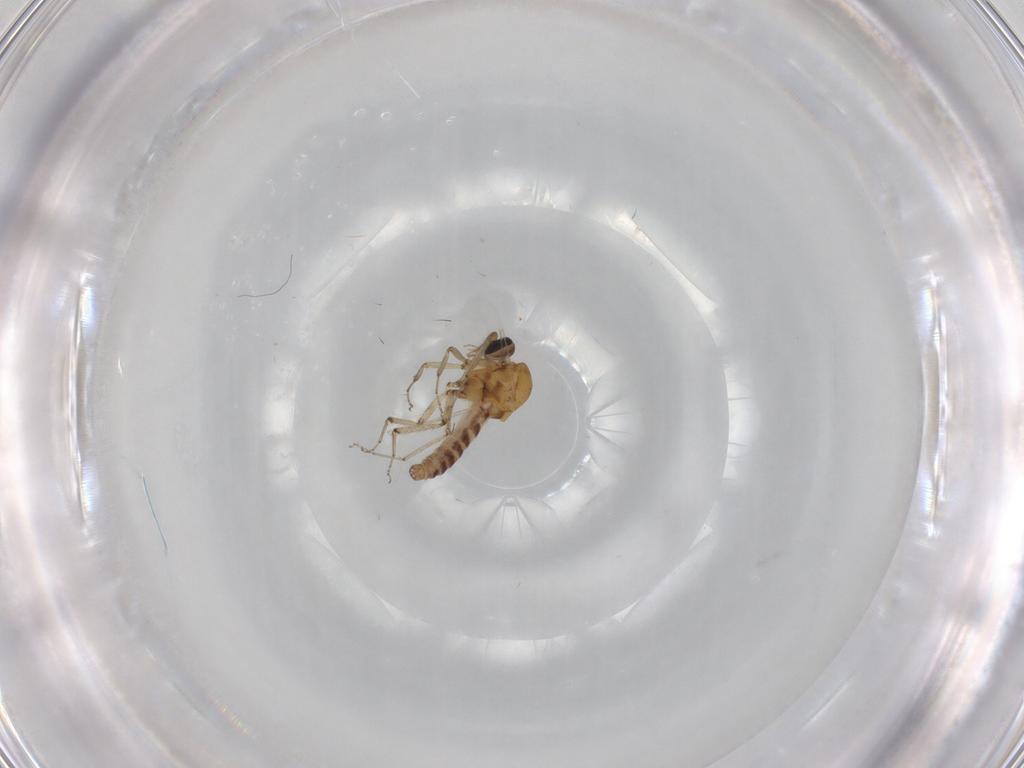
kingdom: Animalia
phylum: Arthropoda
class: Insecta
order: Diptera
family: Ceratopogonidae
